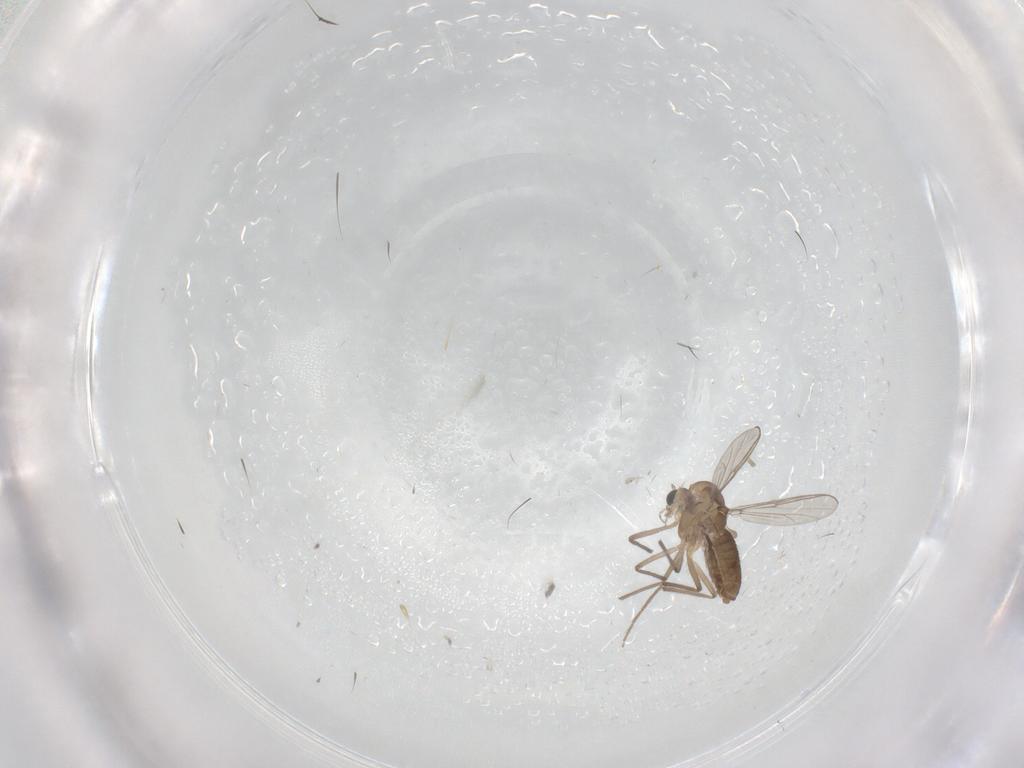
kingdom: Animalia
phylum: Arthropoda
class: Insecta
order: Diptera
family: Chironomidae
